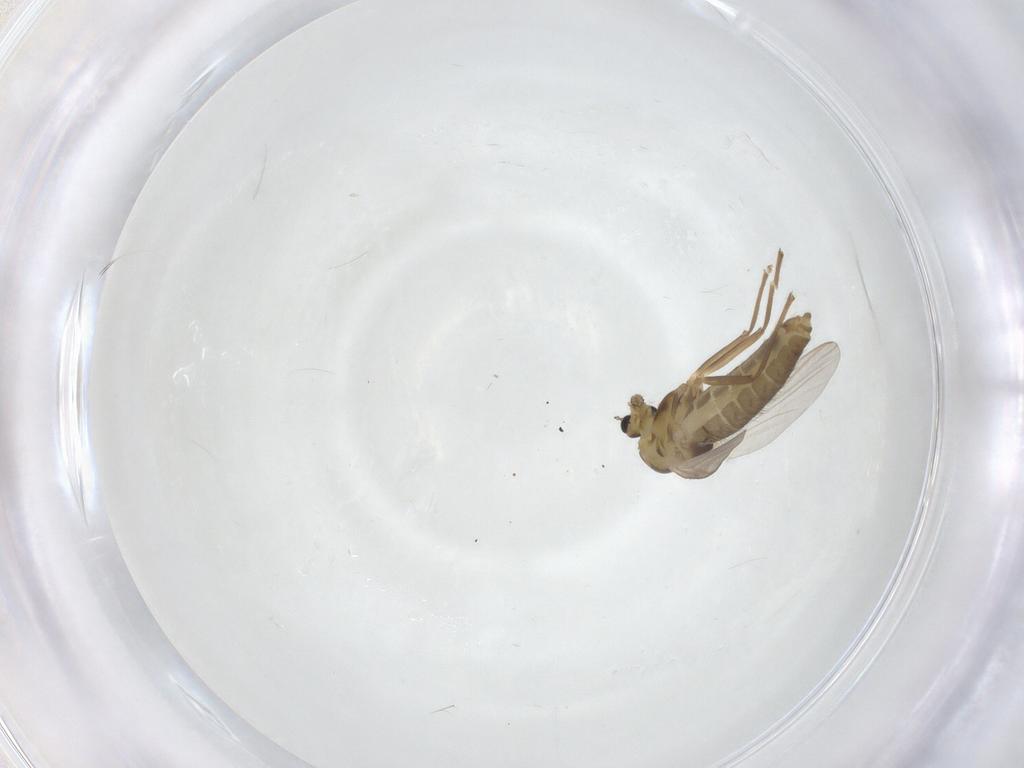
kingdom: Animalia
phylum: Arthropoda
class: Insecta
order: Diptera
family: Chironomidae
